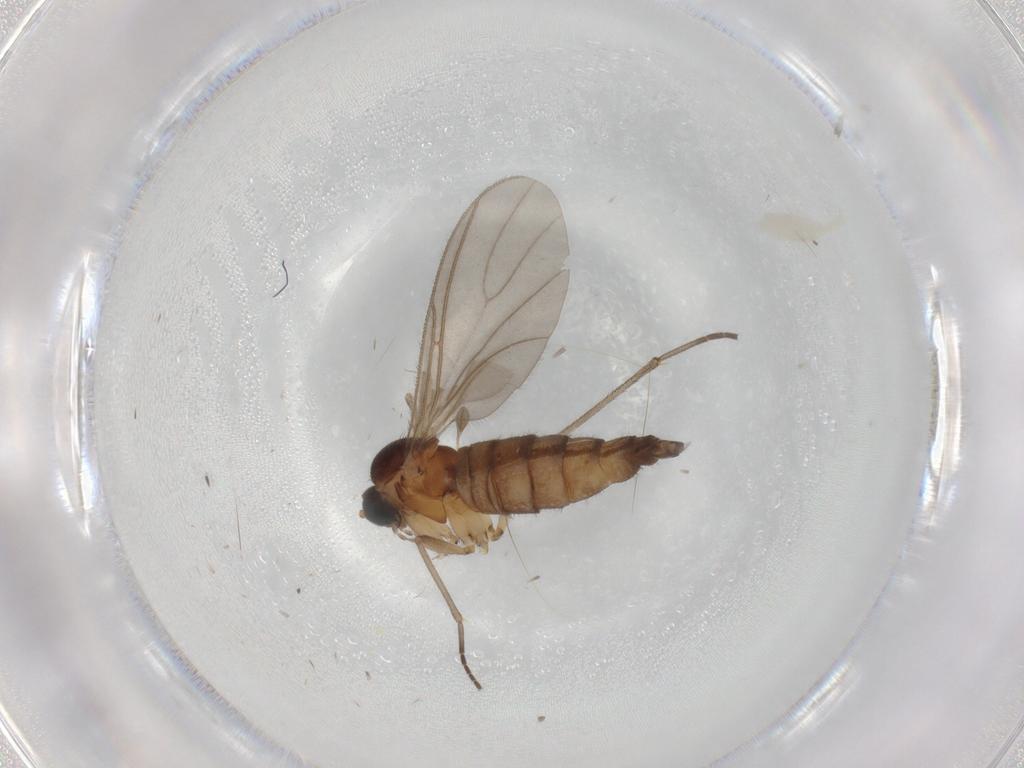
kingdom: Animalia
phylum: Arthropoda
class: Insecta
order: Diptera
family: Sciaridae
